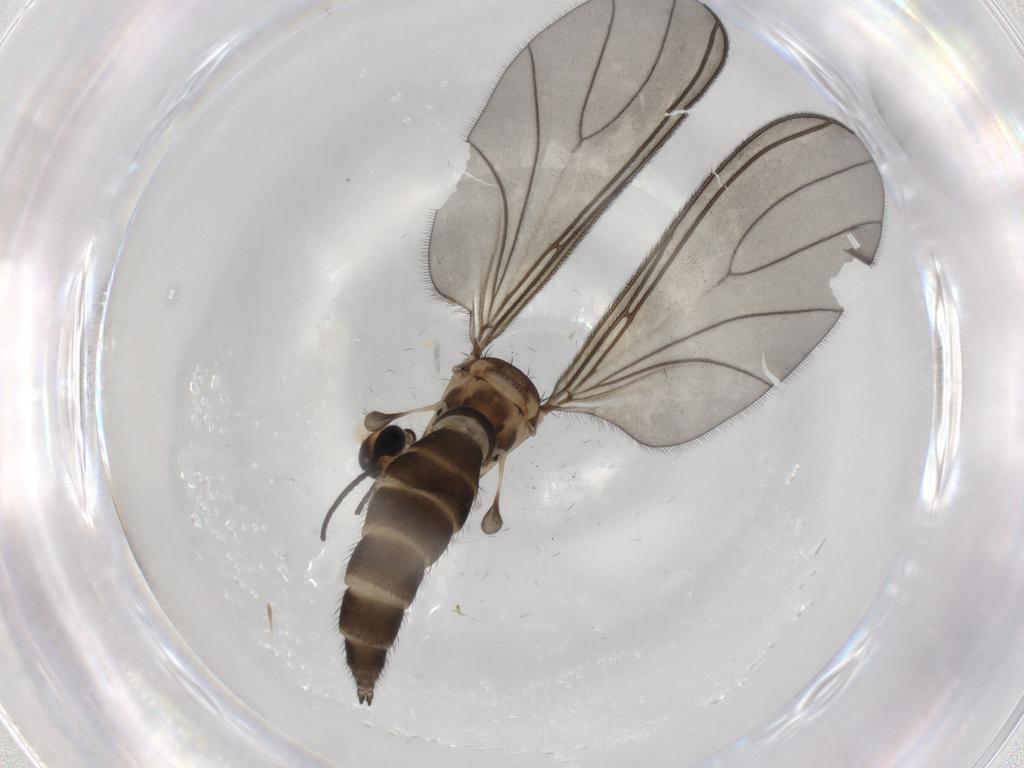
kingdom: Animalia
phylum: Arthropoda
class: Insecta
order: Diptera
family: Sciaridae
